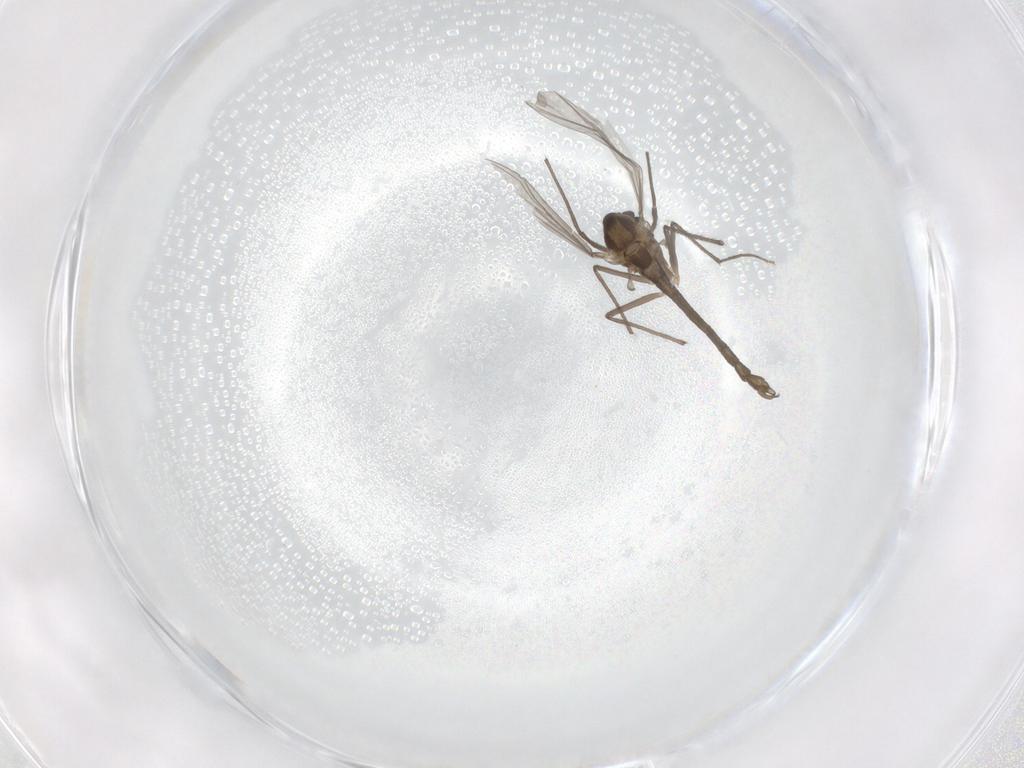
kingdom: Animalia
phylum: Arthropoda
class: Insecta
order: Diptera
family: Chironomidae
